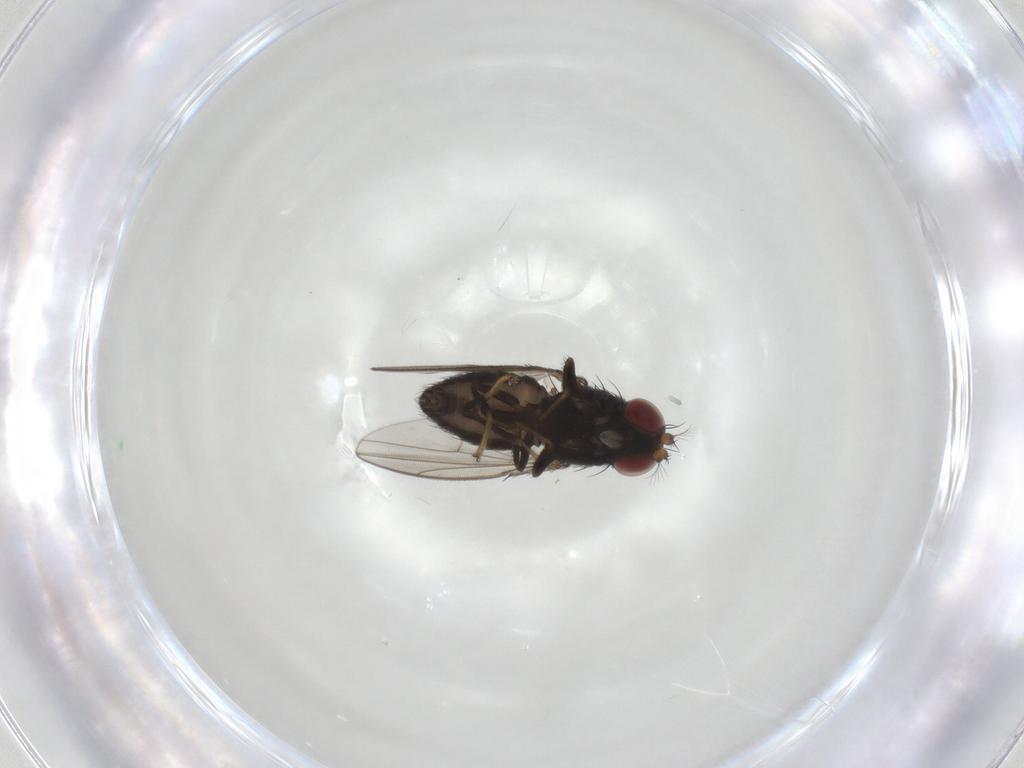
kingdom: Animalia
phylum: Arthropoda
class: Insecta
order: Diptera
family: Ephydridae
